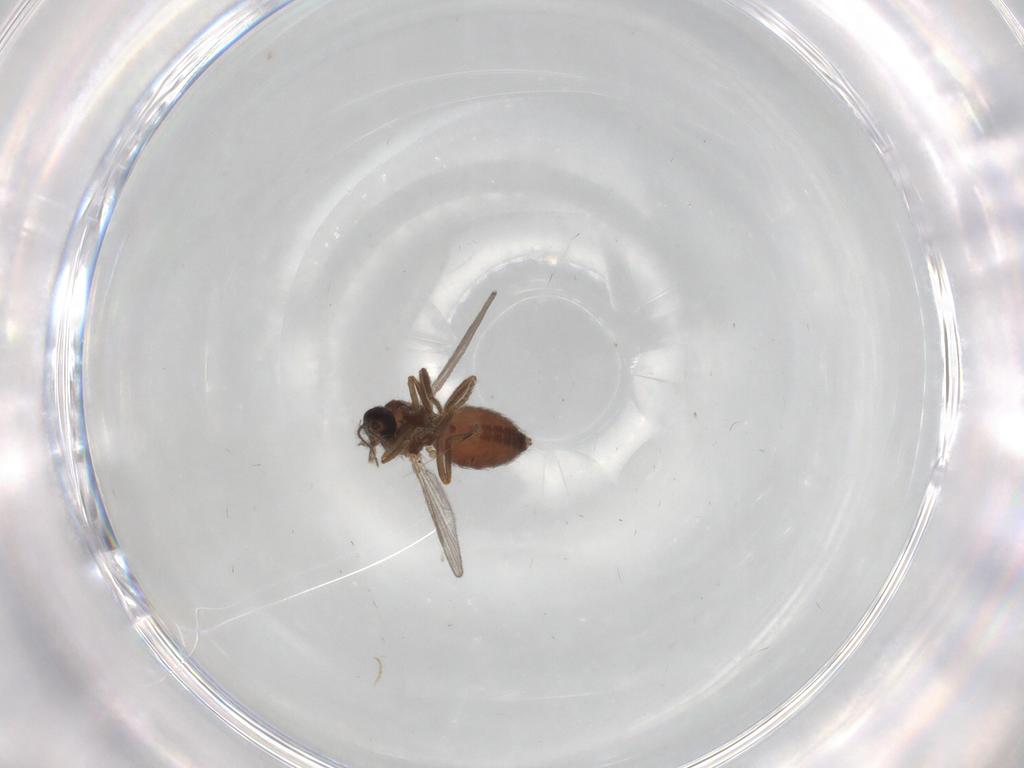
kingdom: Animalia
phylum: Arthropoda
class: Insecta
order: Diptera
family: Ceratopogonidae
